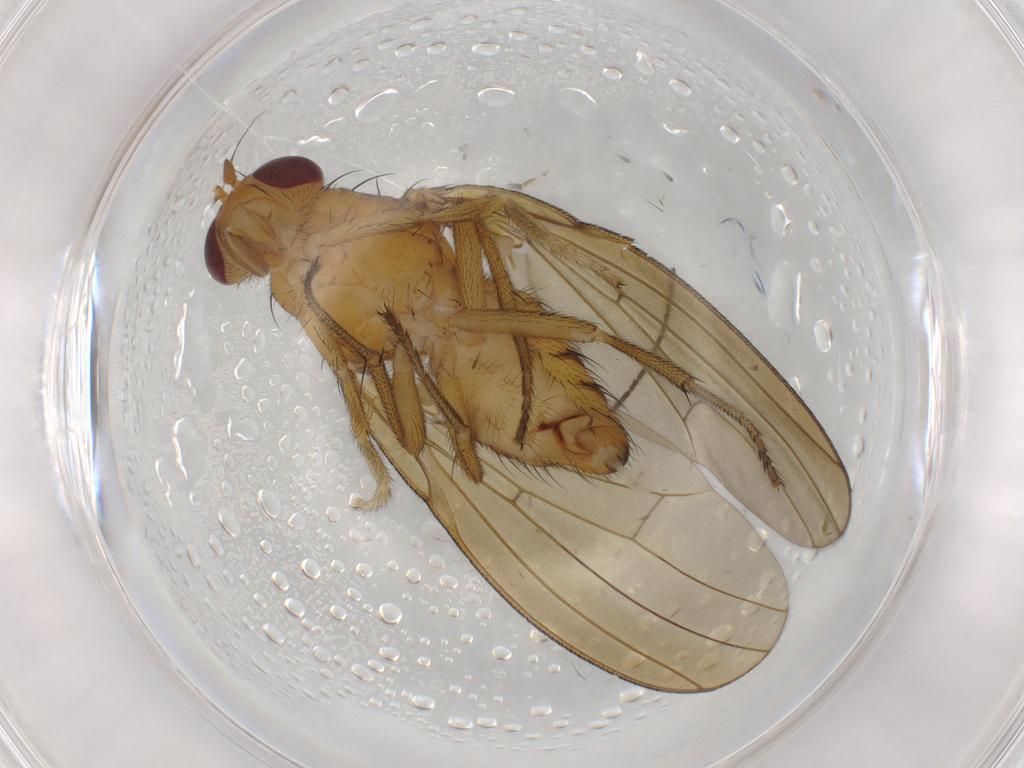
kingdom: Animalia
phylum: Arthropoda
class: Insecta
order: Diptera
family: Sciaridae
